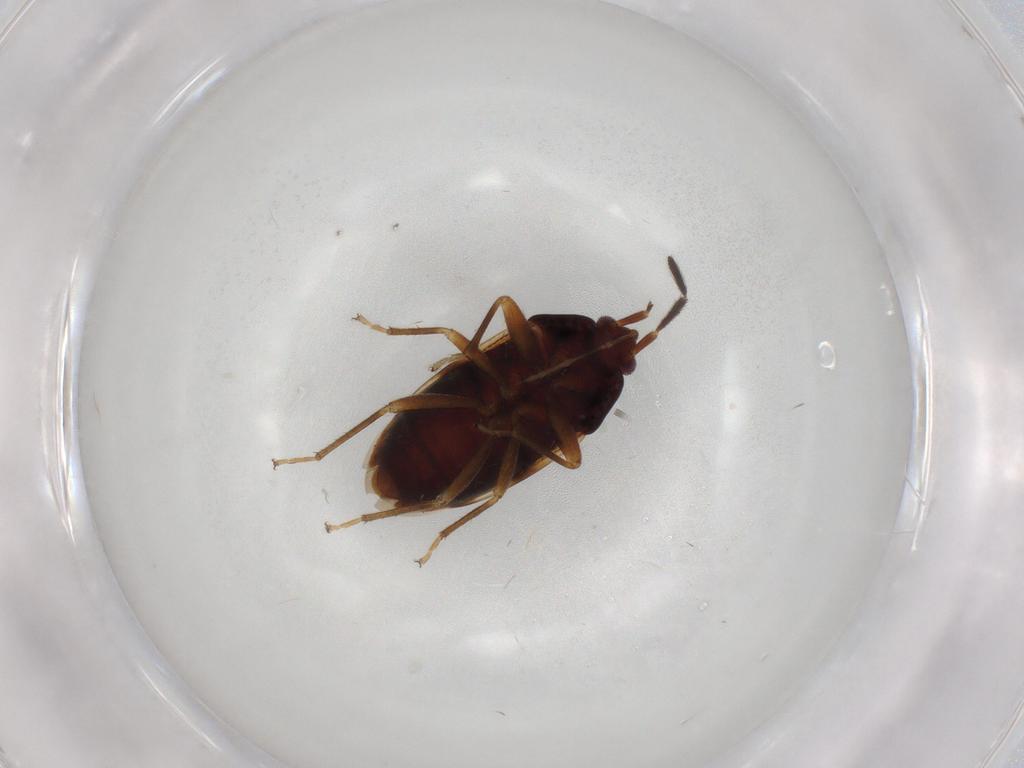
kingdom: Animalia
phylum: Arthropoda
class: Insecta
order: Hemiptera
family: Rhyparochromidae
